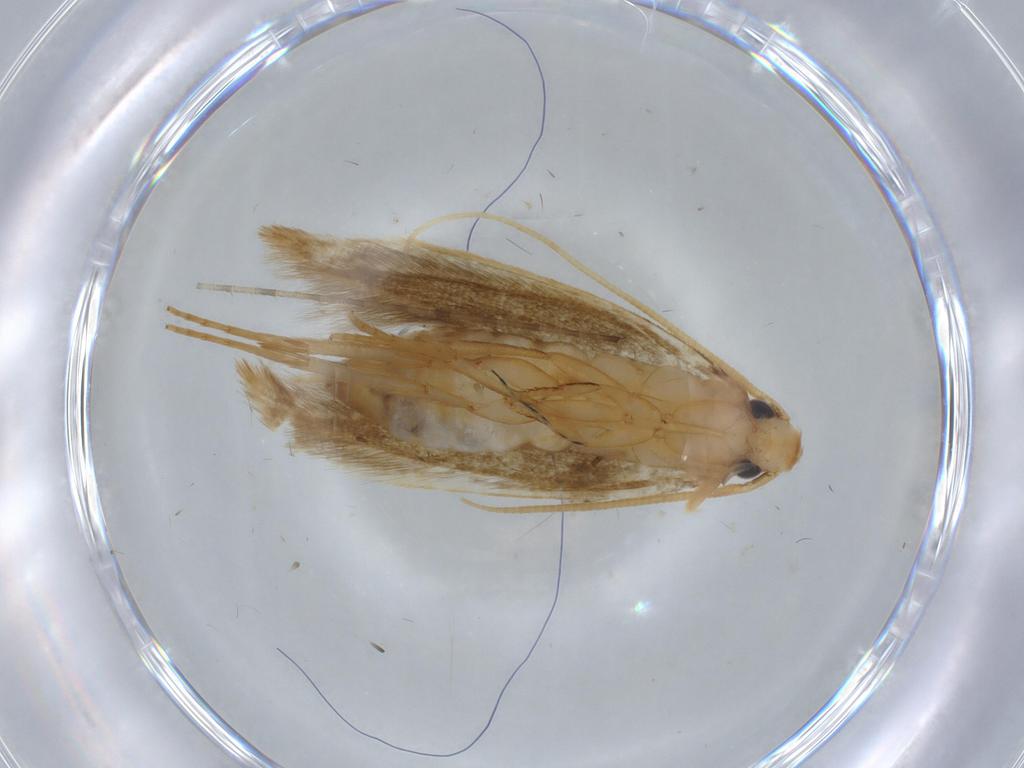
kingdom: Animalia
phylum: Arthropoda
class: Insecta
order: Lepidoptera
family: Tineidae
